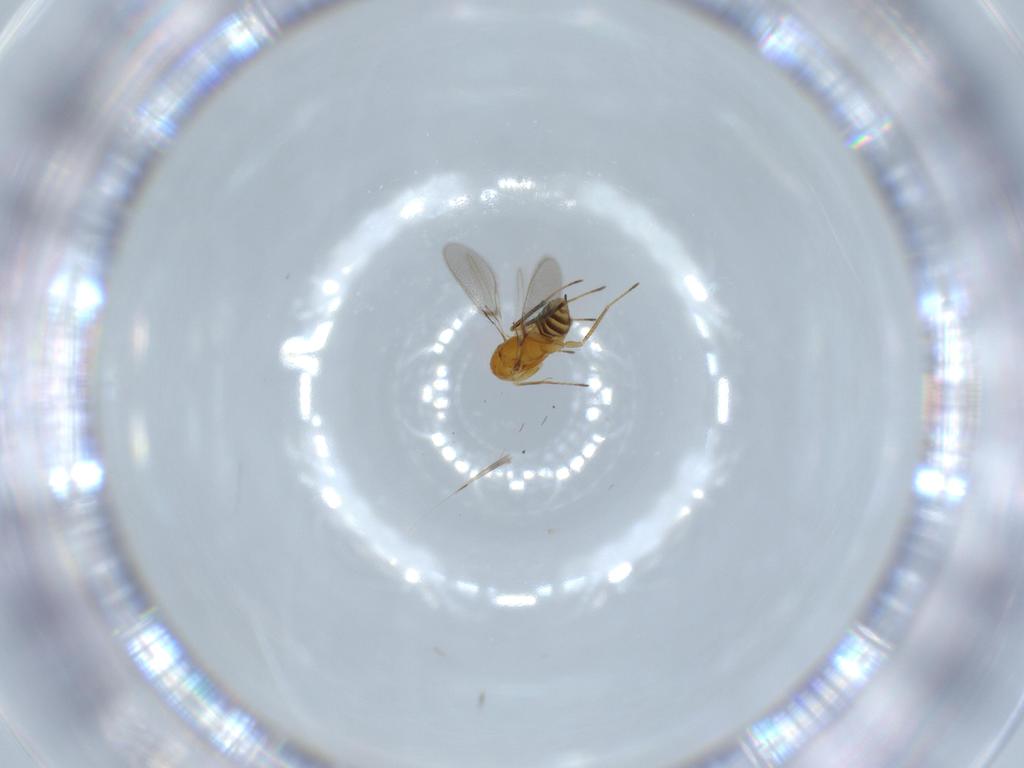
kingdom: Animalia
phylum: Arthropoda
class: Insecta
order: Hymenoptera
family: Mymaridae
